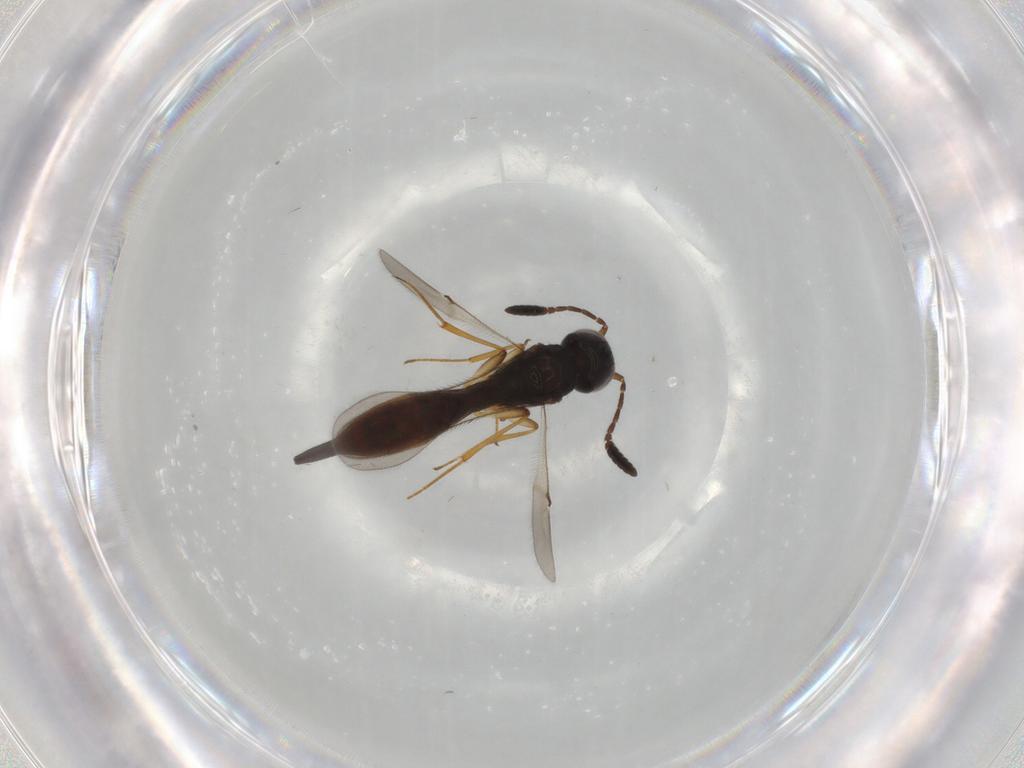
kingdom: Animalia
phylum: Arthropoda
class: Insecta
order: Hymenoptera
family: Scelionidae
